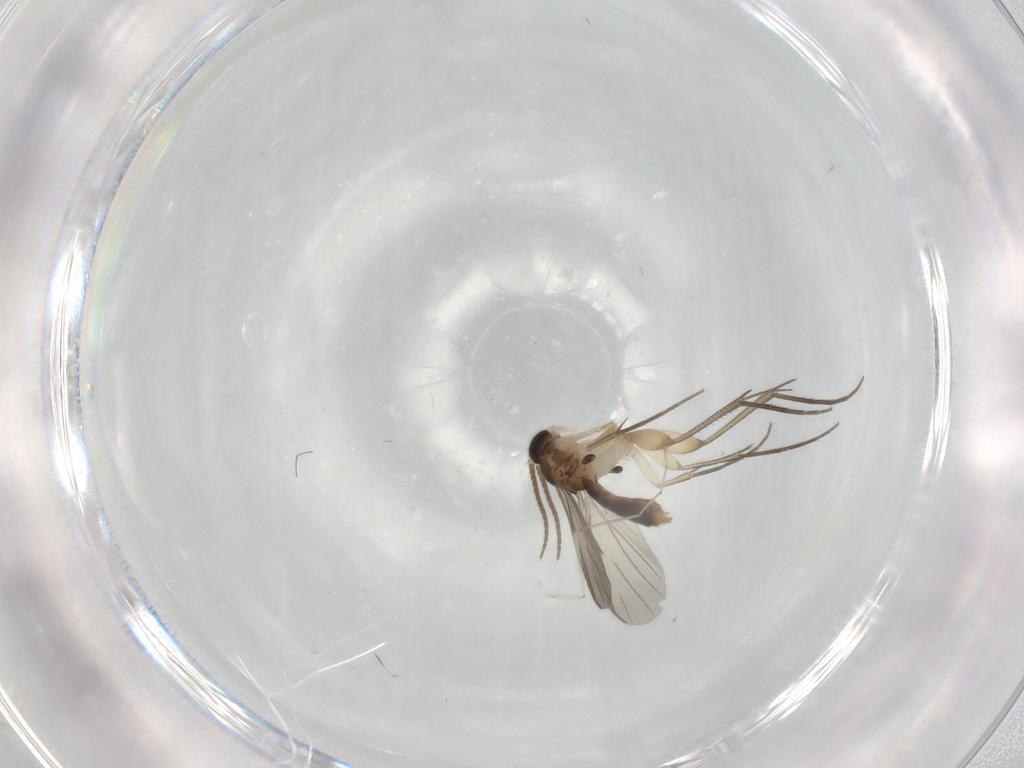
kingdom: Animalia
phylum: Arthropoda
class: Insecta
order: Diptera
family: Mycetophilidae
